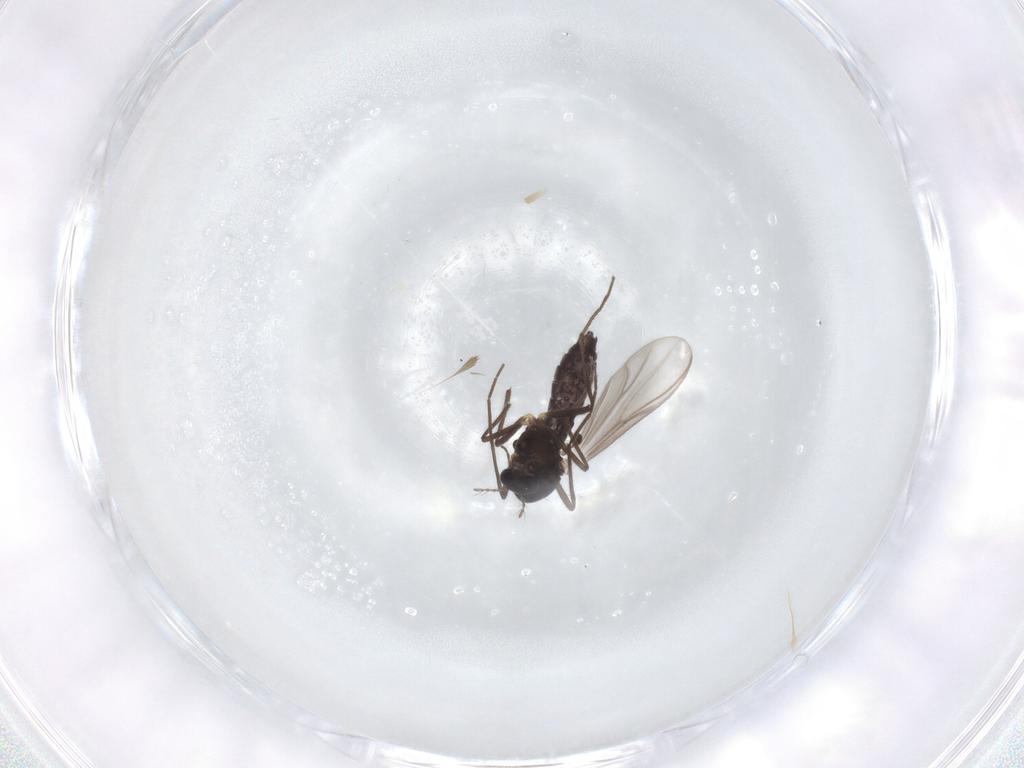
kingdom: Animalia
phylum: Arthropoda
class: Insecta
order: Diptera
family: Chironomidae
